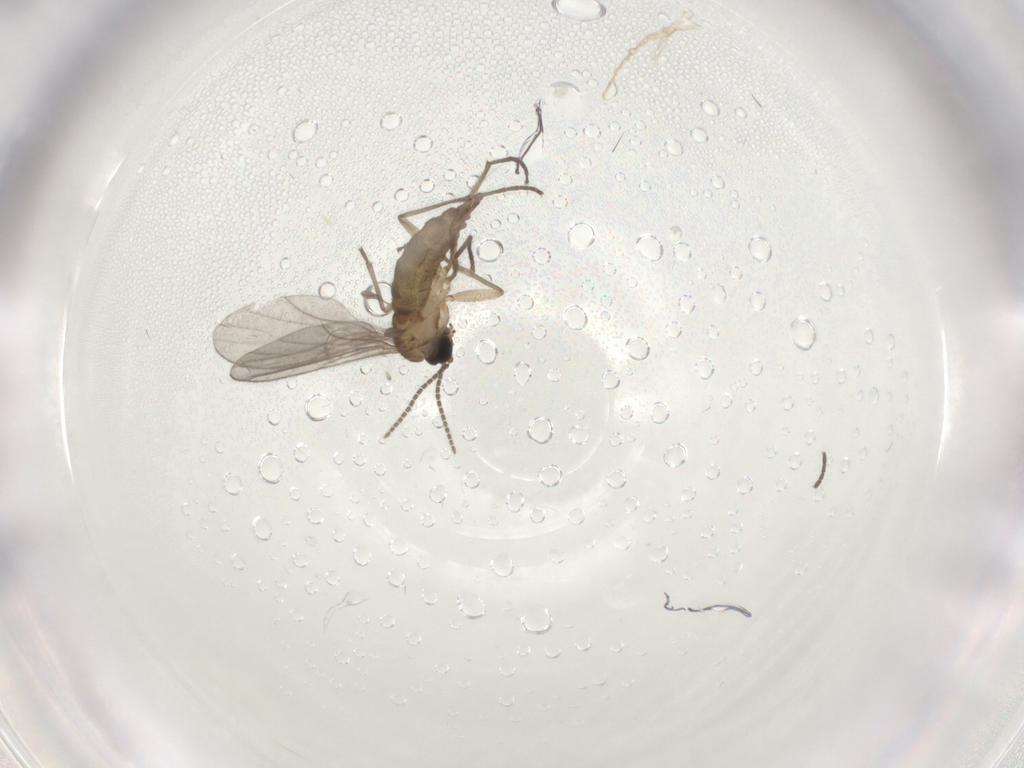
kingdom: Animalia
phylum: Arthropoda
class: Insecta
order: Diptera
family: Sciaridae
